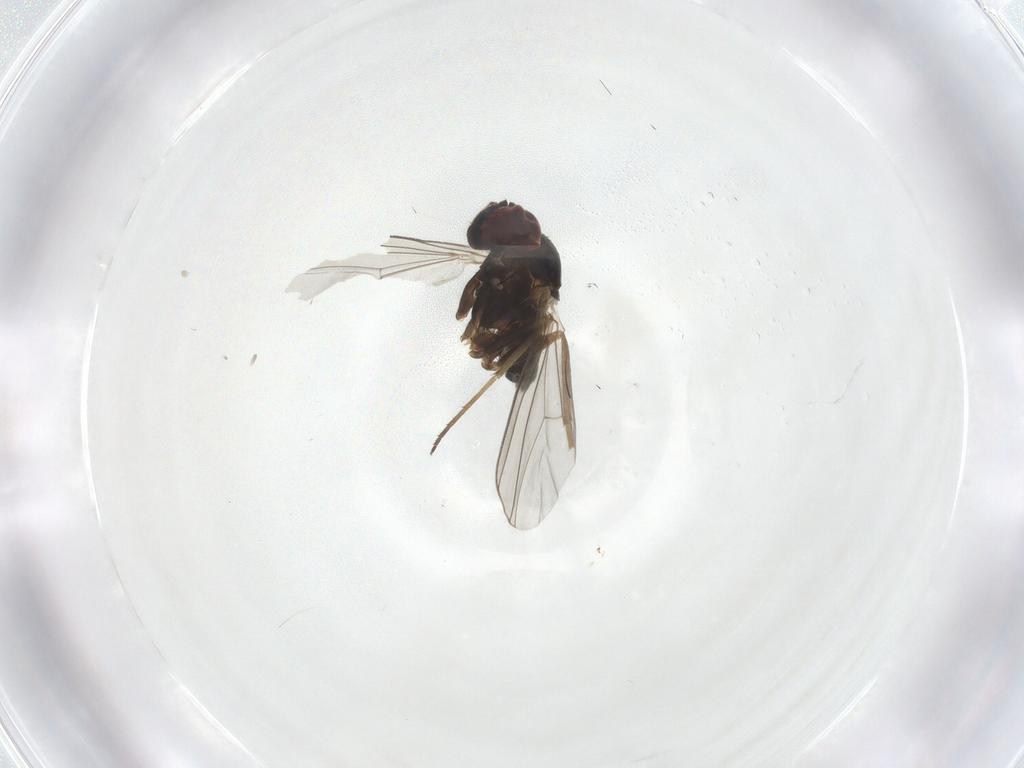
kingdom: Animalia
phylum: Arthropoda
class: Insecta
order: Diptera
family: Dolichopodidae
